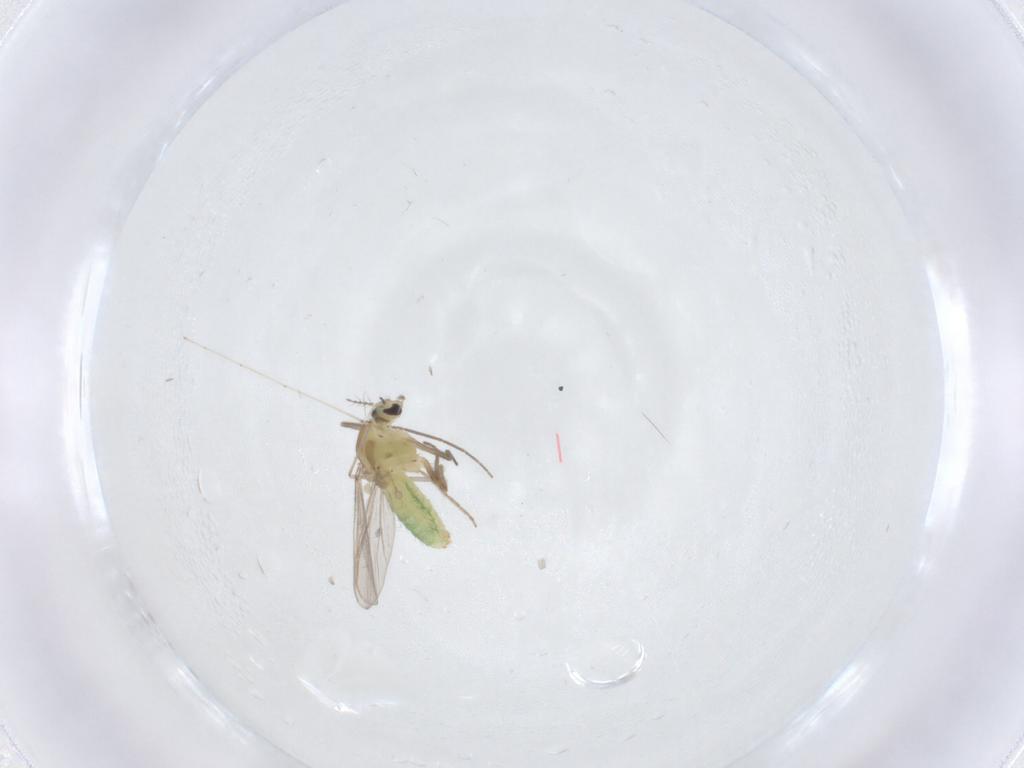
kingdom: Animalia
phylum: Arthropoda
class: Insecta
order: Diptera
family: Chironomidae
